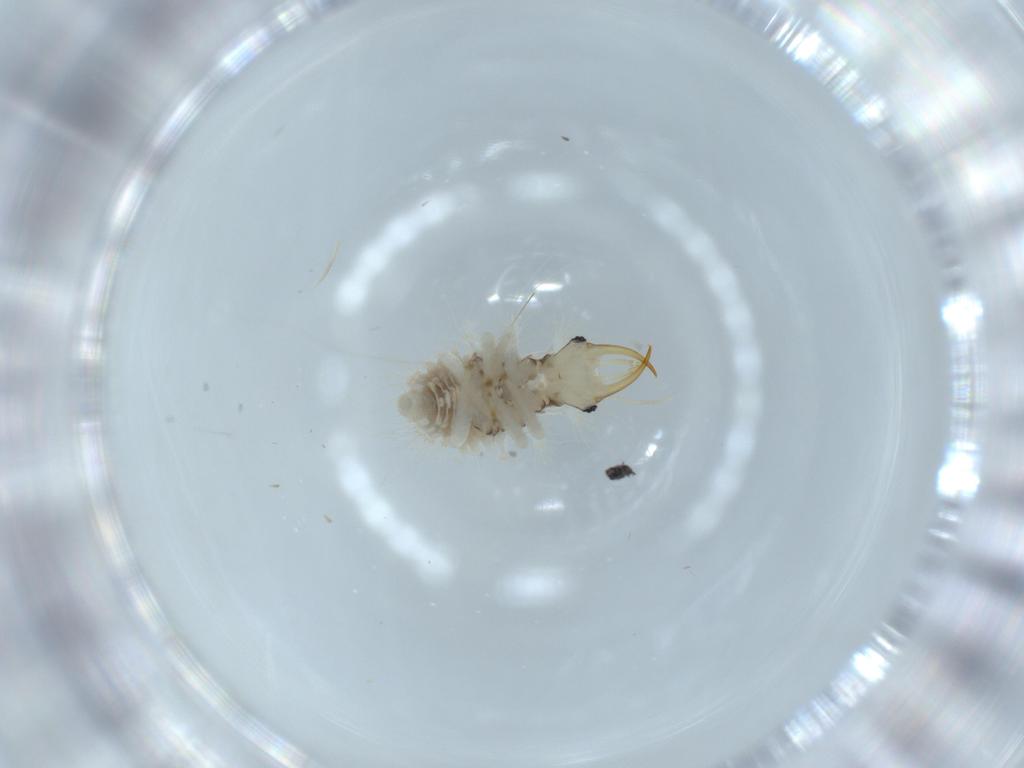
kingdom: Animalia
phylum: Arthropoda
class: Insecta
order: Neuroptera
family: Chrysopidae
